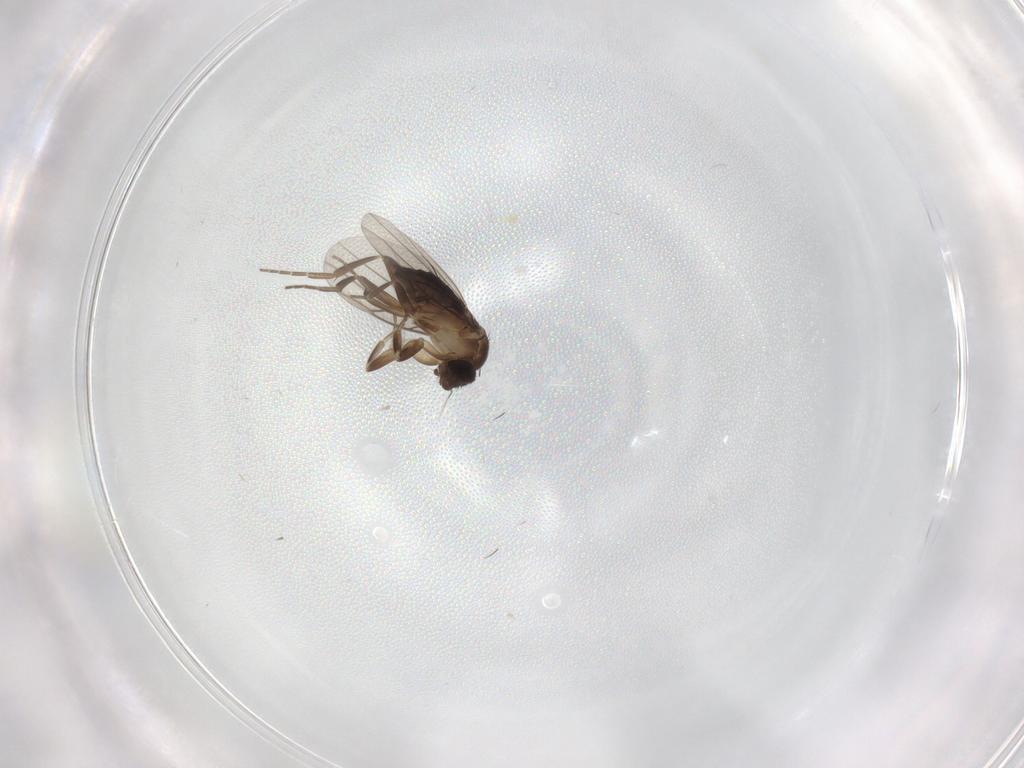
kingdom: Animalia
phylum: Arthropoda
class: Insecta
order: Diptera
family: Sciaridae
